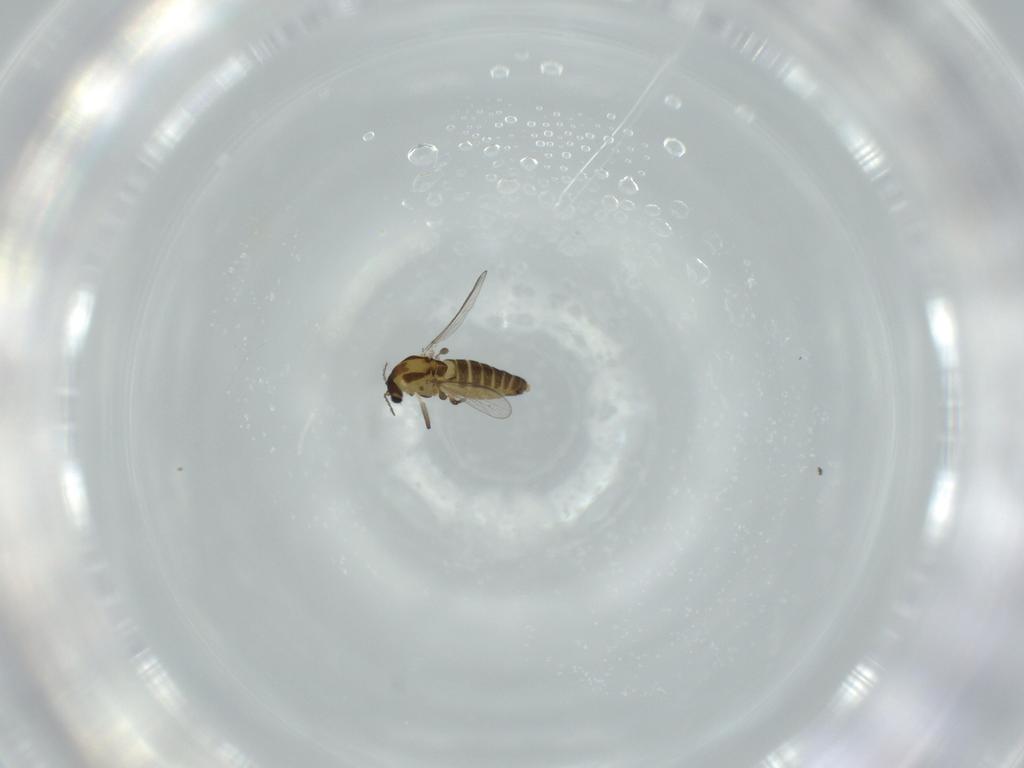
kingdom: Animalia
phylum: Arthropoda
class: Insecta
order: Diptera
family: Chironomidae
